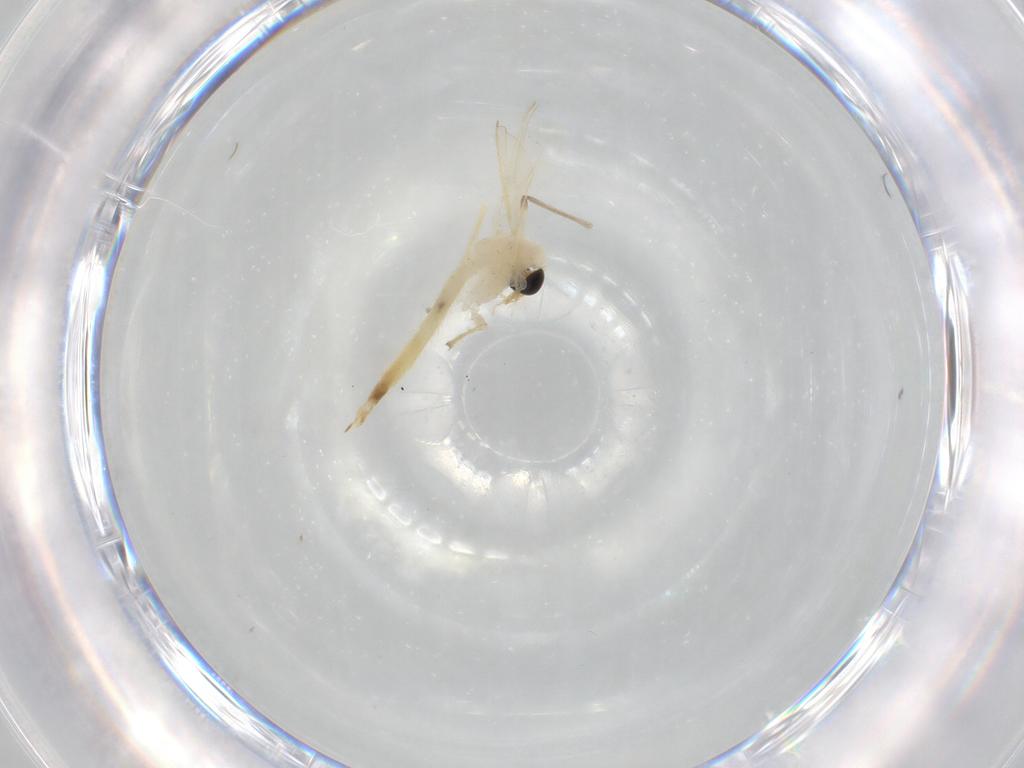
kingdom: Animalia
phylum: Arthropoda
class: Insecta
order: Diptera
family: Chironomidae
